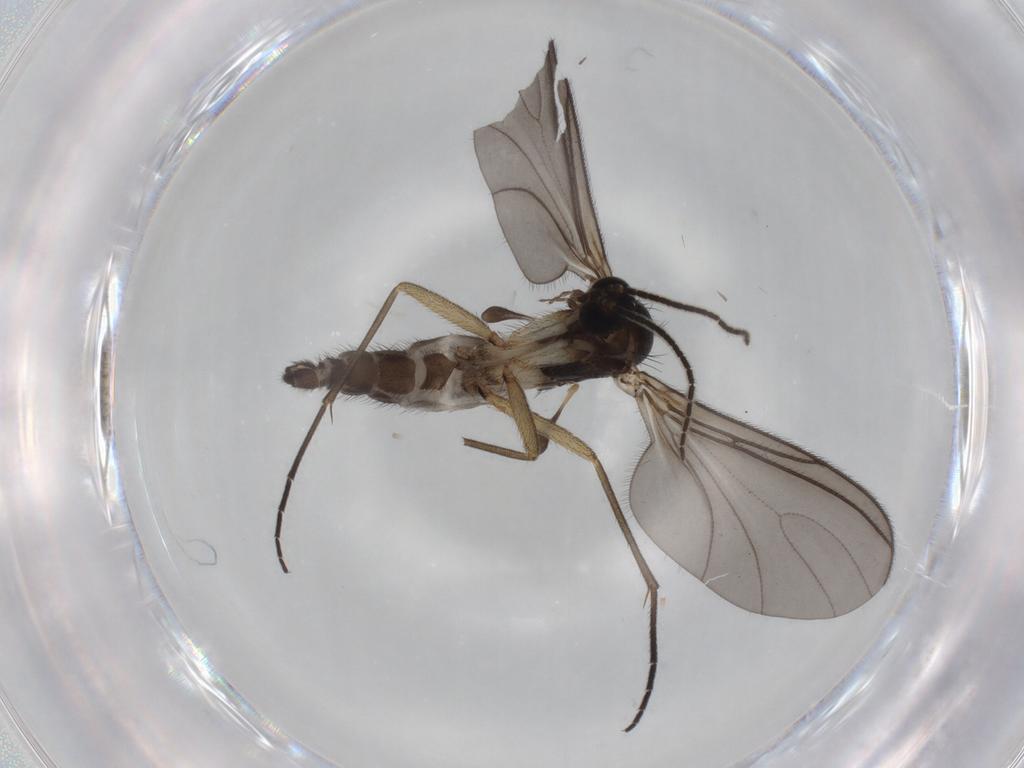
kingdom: Animalia
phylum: Arthropoda
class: Insecta
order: Diptera
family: Sciaridae
